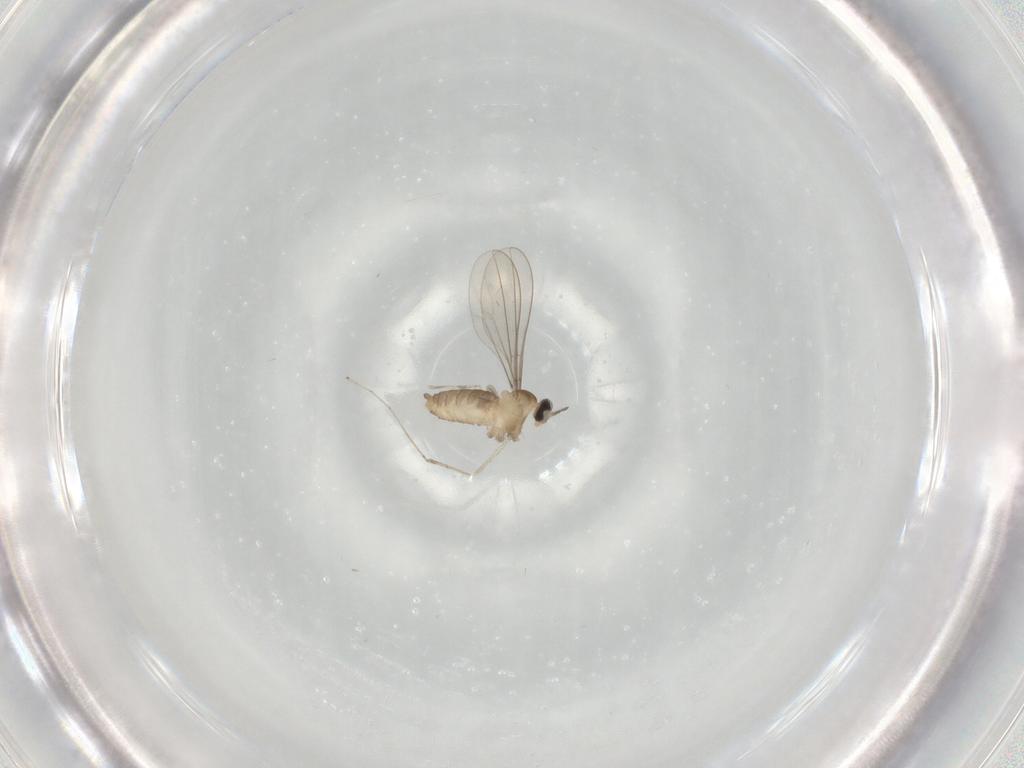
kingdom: Animalia
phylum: Arthropoda
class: Insecta
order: Diptera
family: Cecidomyiidae
